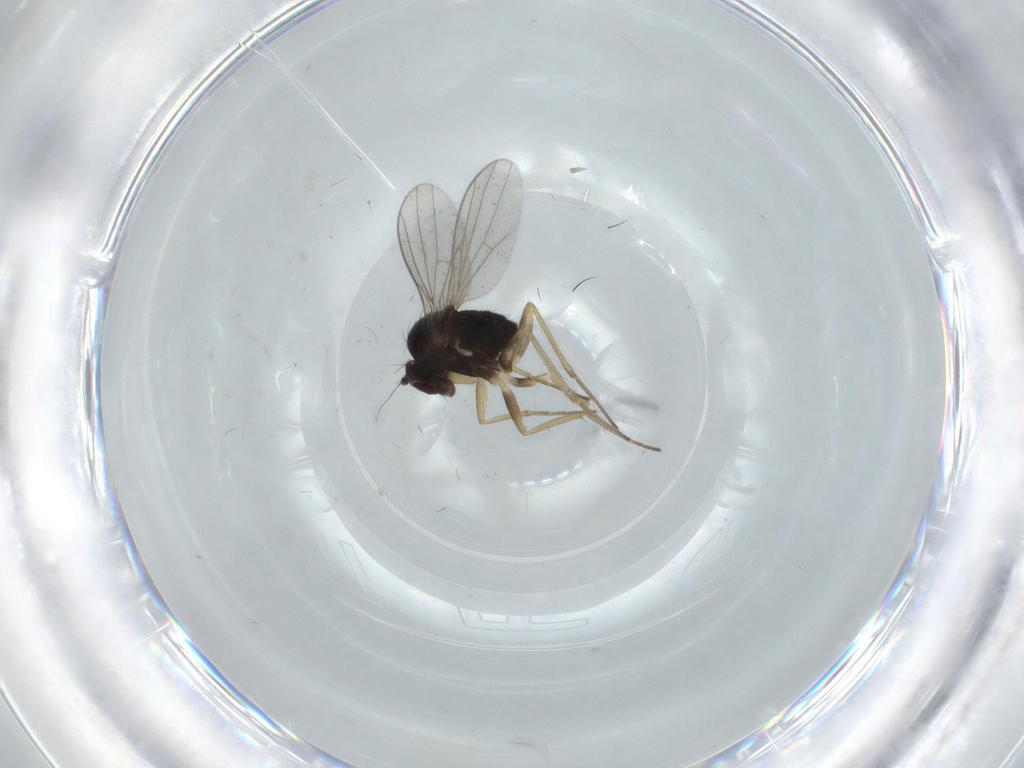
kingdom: Animalia
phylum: Arthropoda
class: Insecta
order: Diptera
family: Dolichopodidae
